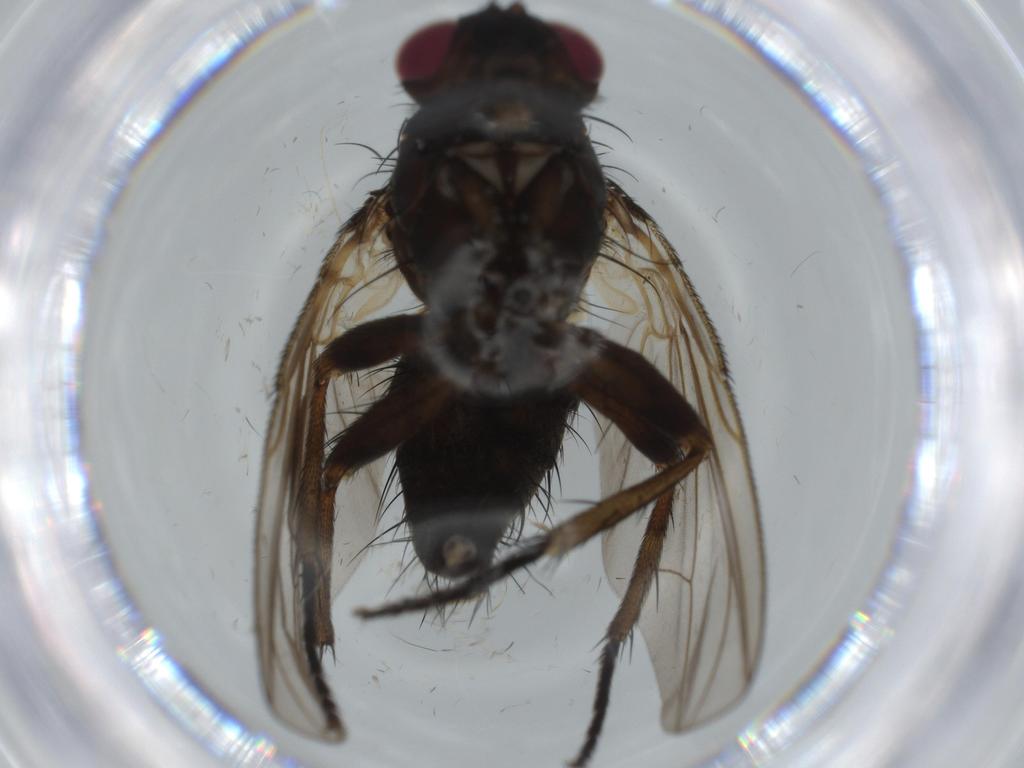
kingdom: Animalia
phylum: Arthropoda
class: Insecta
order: Diptera
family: Calliphoridae
